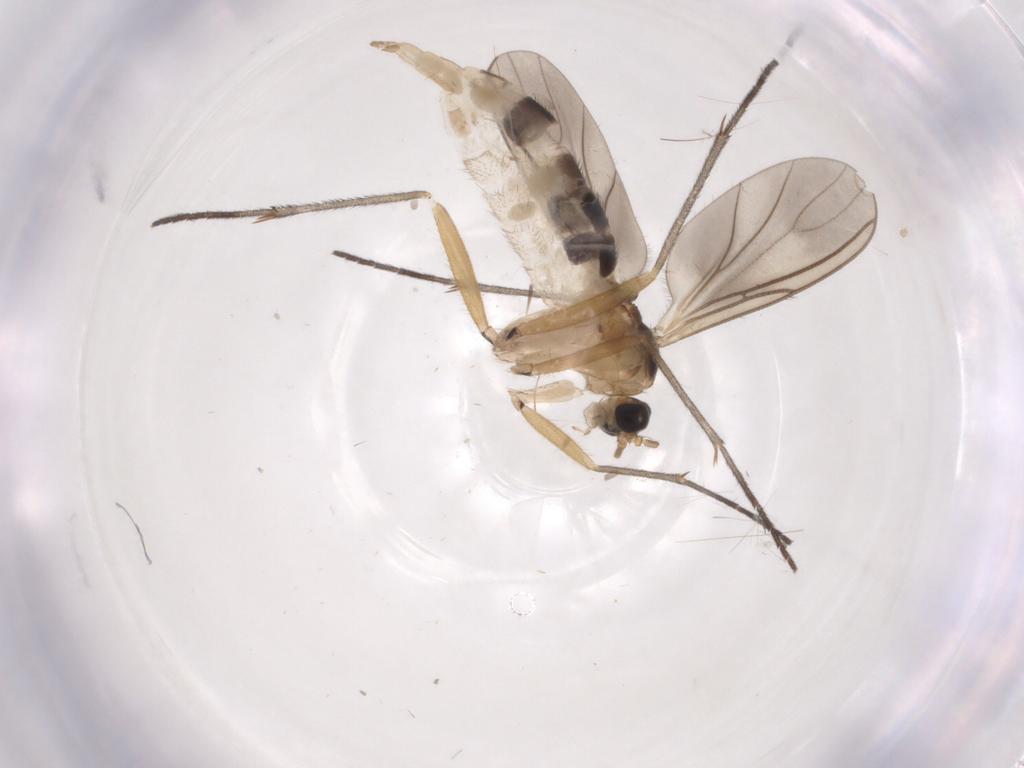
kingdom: Animalia
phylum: Arthropoda
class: Insecta
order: Diptera
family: Sciaridae
